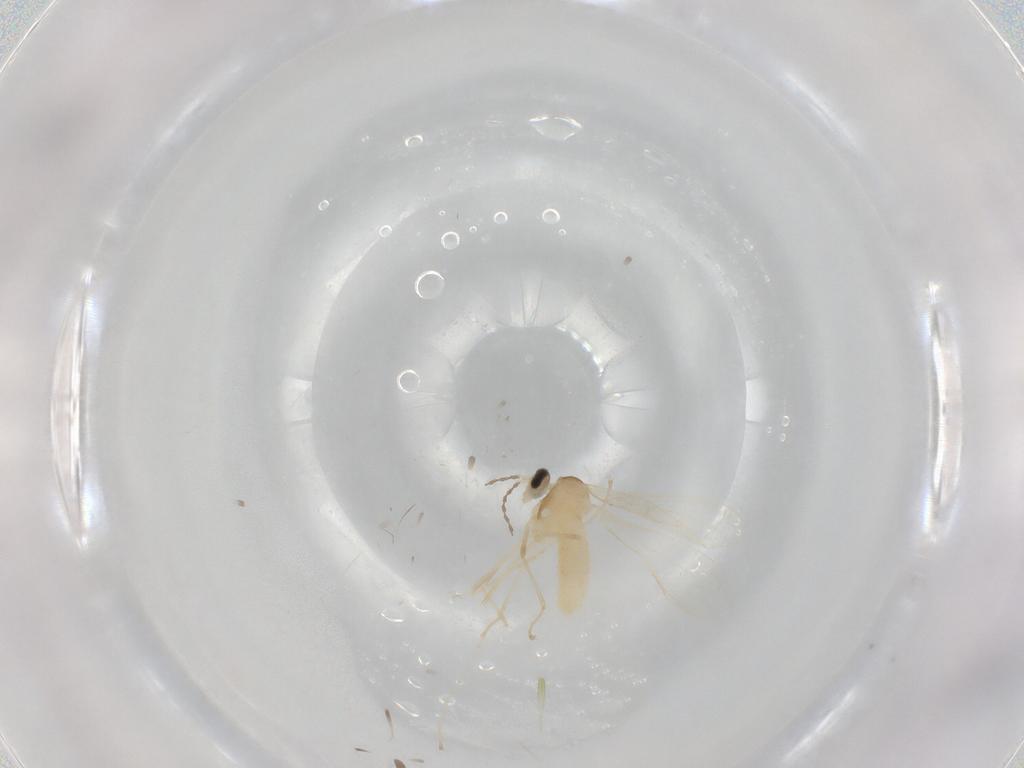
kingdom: Animalia
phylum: Arthropoda
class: Insecta
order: Diptera
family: Cecidomyiidae
